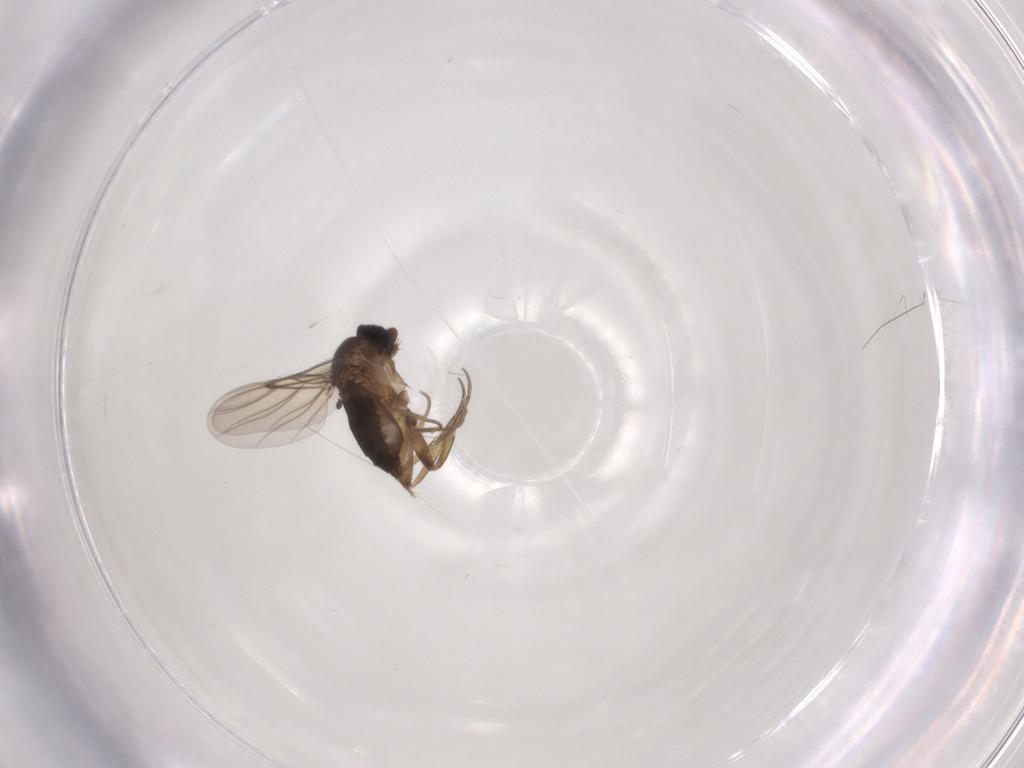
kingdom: Animalia
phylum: Arthropoda
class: Insecta
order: Diptera
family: Phoridae
